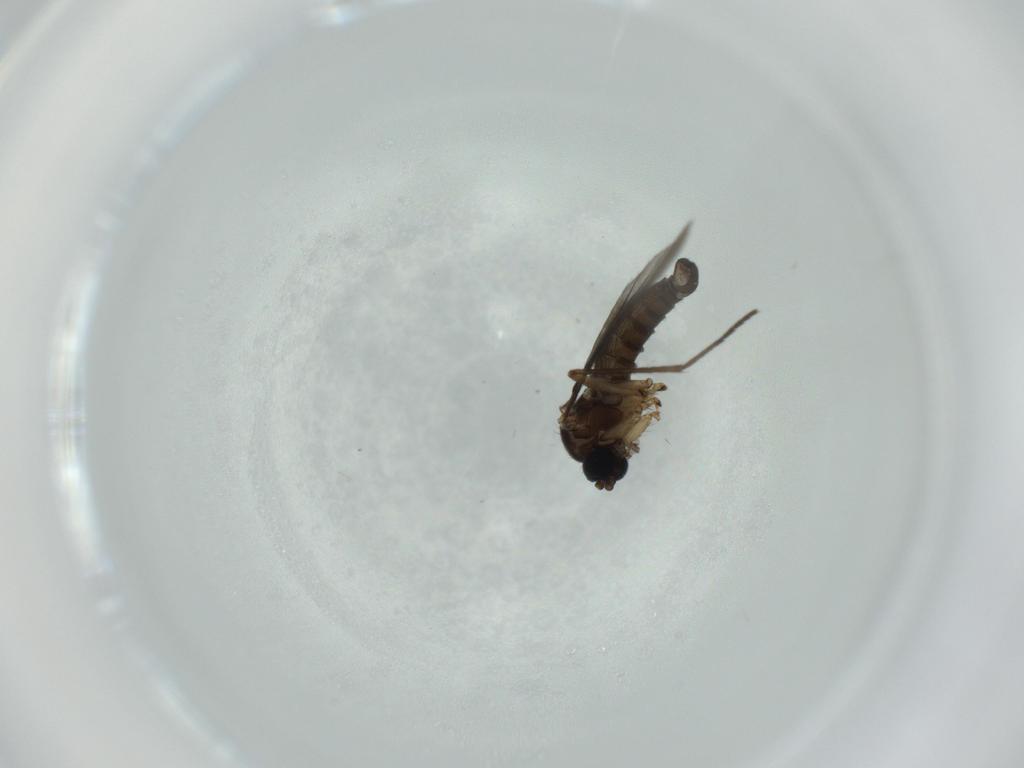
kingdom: Animalia
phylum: Arthropoda
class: Insecta
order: Diptera
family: Sciaridae
